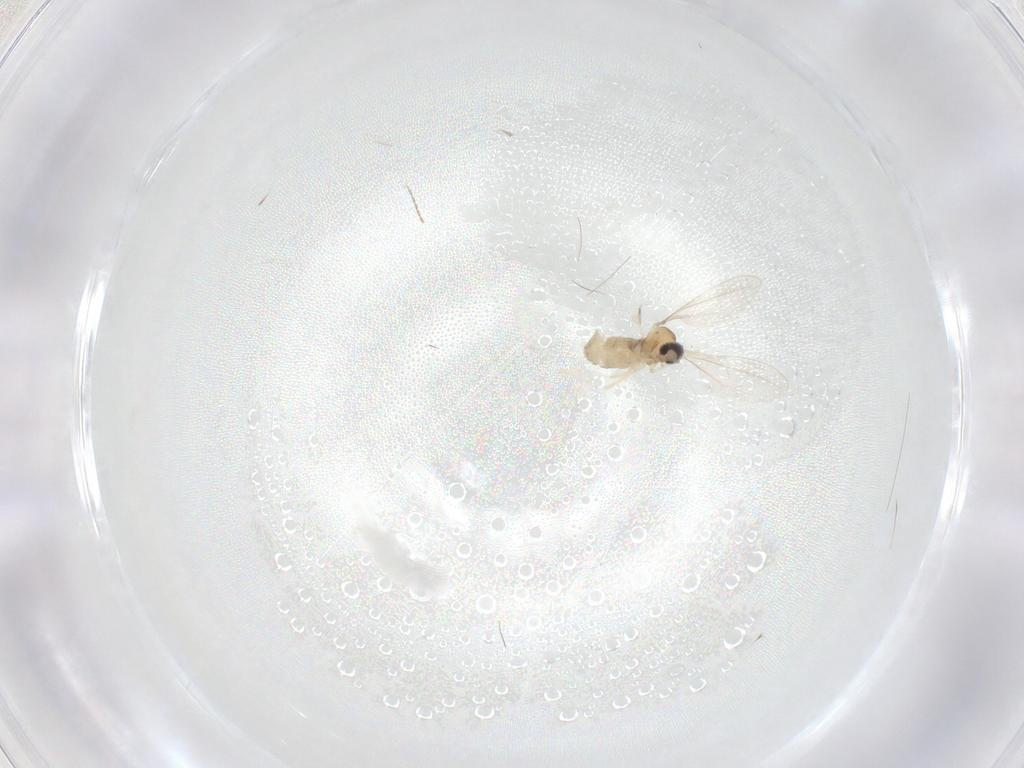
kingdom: Animalia
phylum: Arthropoda
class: Insecta
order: Diptera
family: Cecidomyiidae
